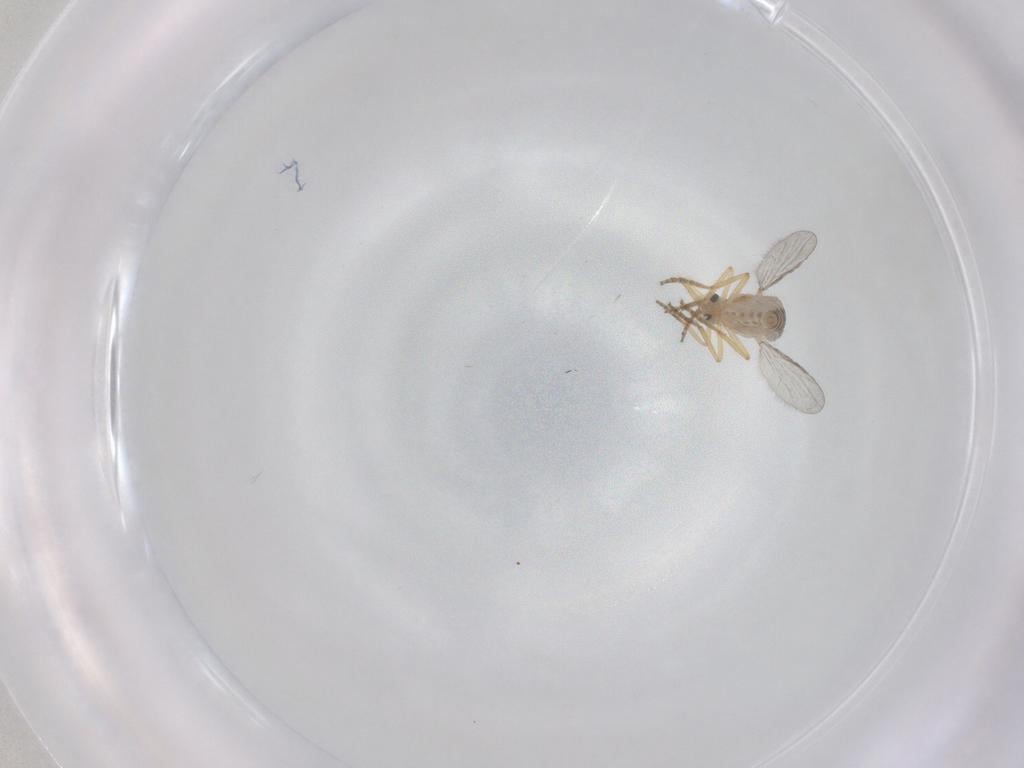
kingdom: Animalia
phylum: Arthropoda
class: Insecta
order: Diptera
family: Ceratopogonidae
